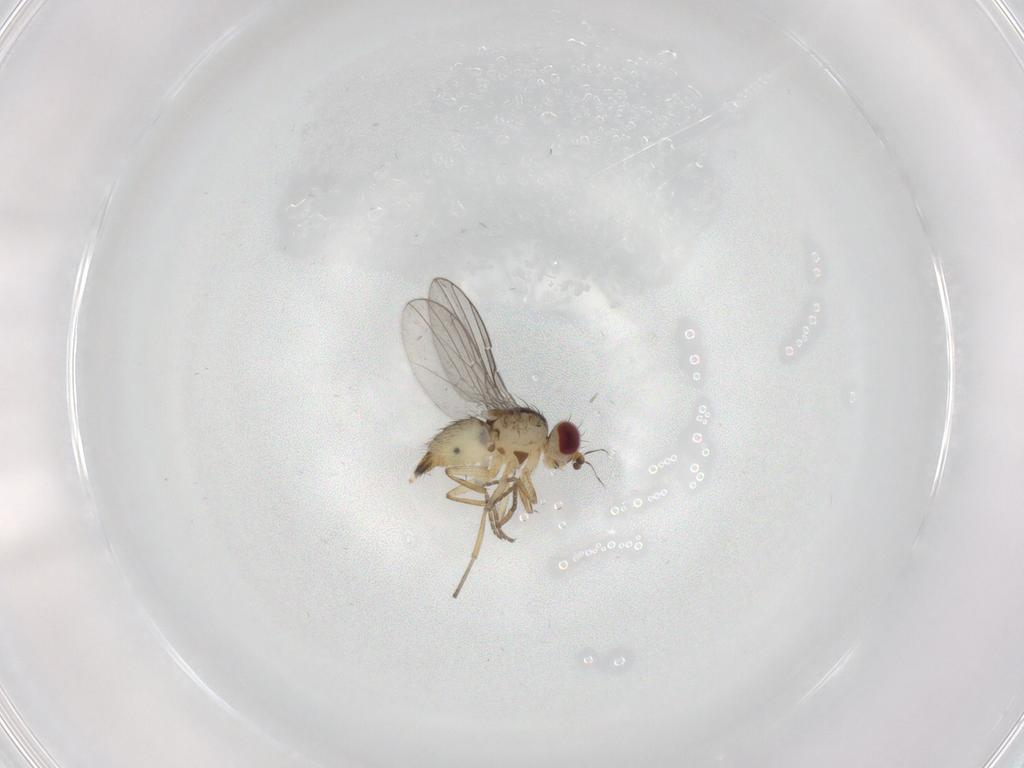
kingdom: Animalia
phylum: Arthropoda
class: Insecta
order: Diptera
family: Agromyzidae
